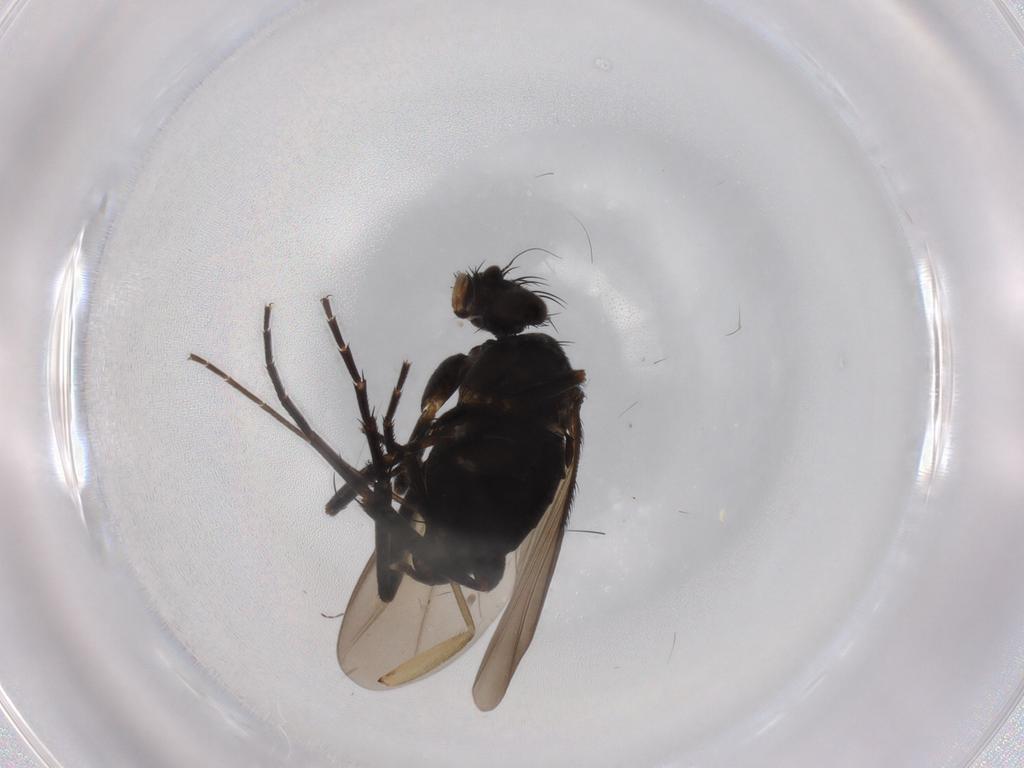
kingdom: Animalia
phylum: Arthropoda
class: Insecta
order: Diptera
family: Phoridae
